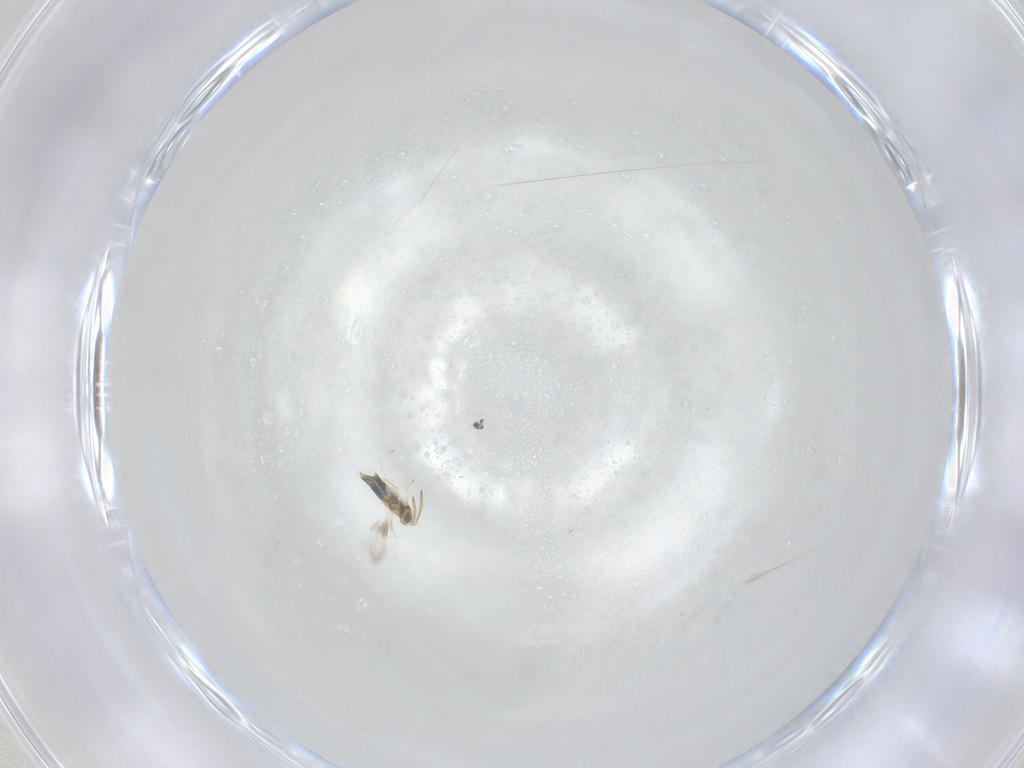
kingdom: Animalia
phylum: Arthropoda
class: Insecta
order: Hymenoptera
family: Aphelinidae
